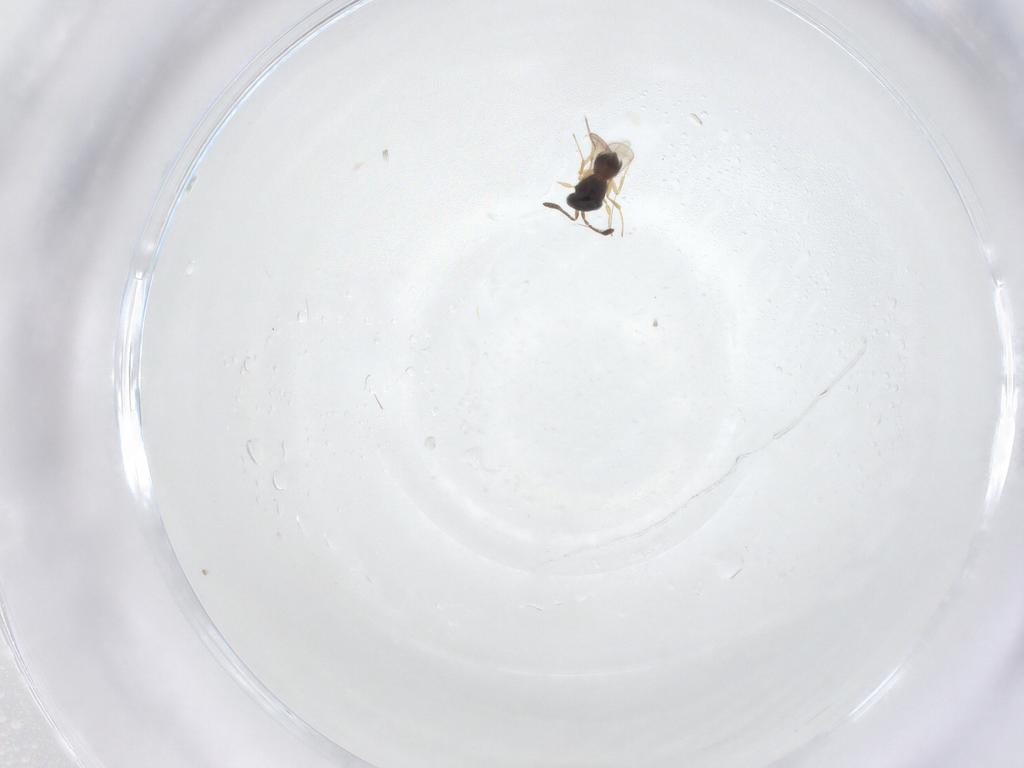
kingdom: Animalia
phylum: Arthropoda
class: Insecta
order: Hymenoptera
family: Scelionidae
